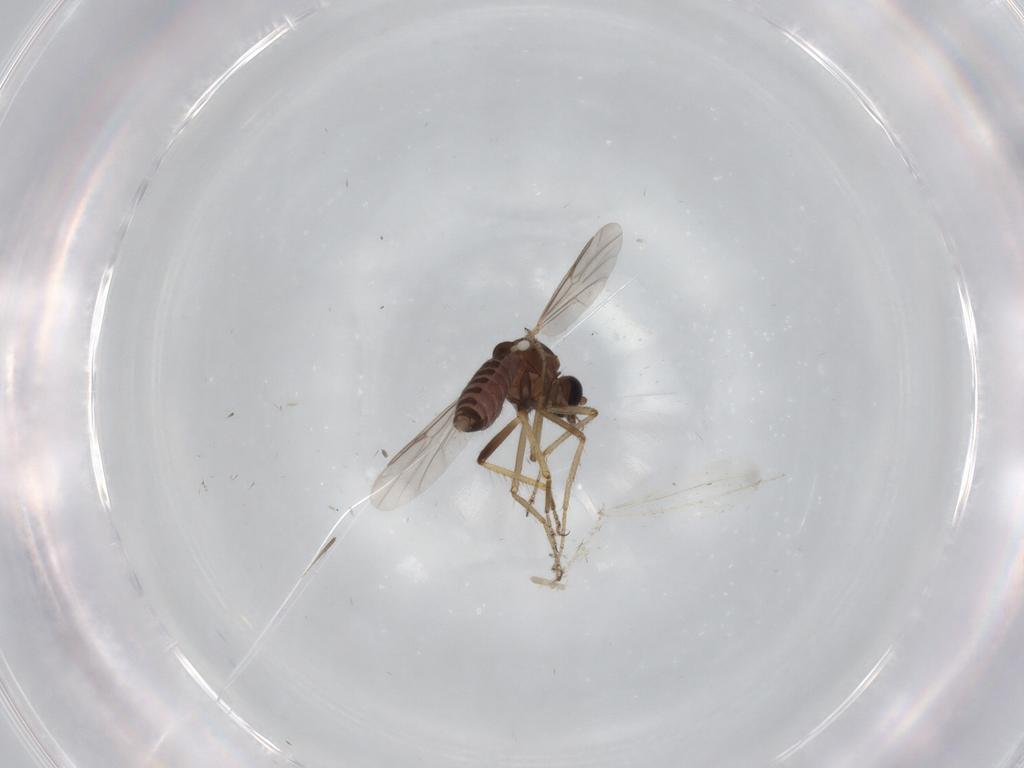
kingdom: Animalia
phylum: Arthropoda
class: Insecta
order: Diptera
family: Ceratopogonidae
